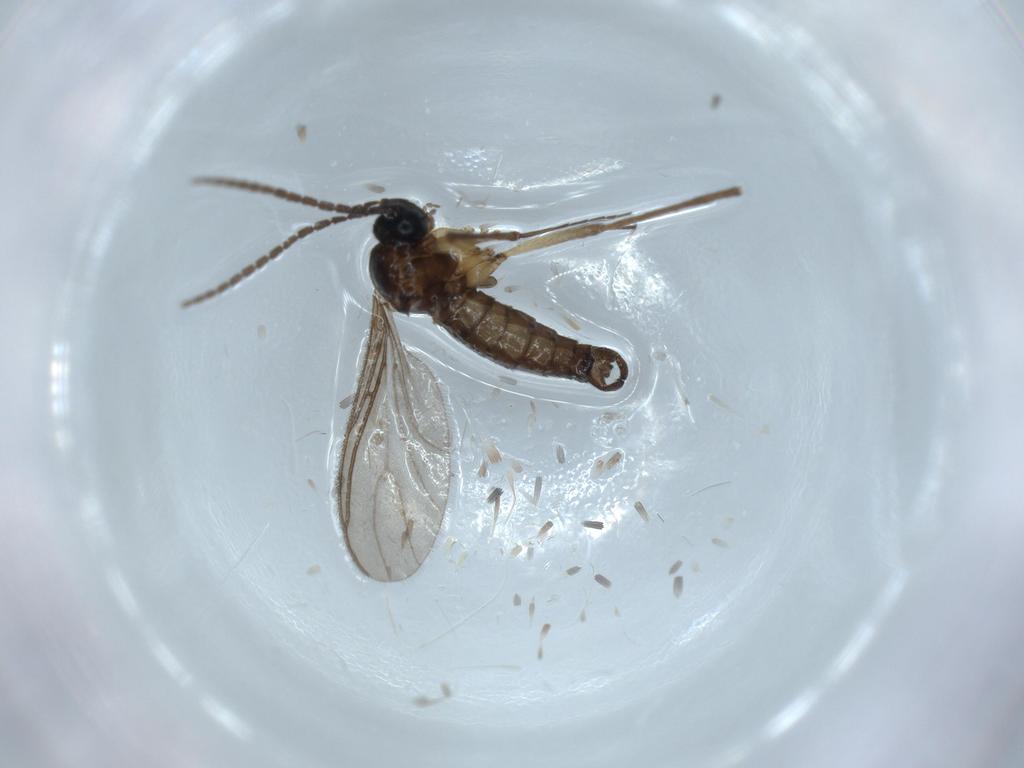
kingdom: Animalia
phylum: Arthropoda
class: Insecta
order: Diptera
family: Sciaridae
